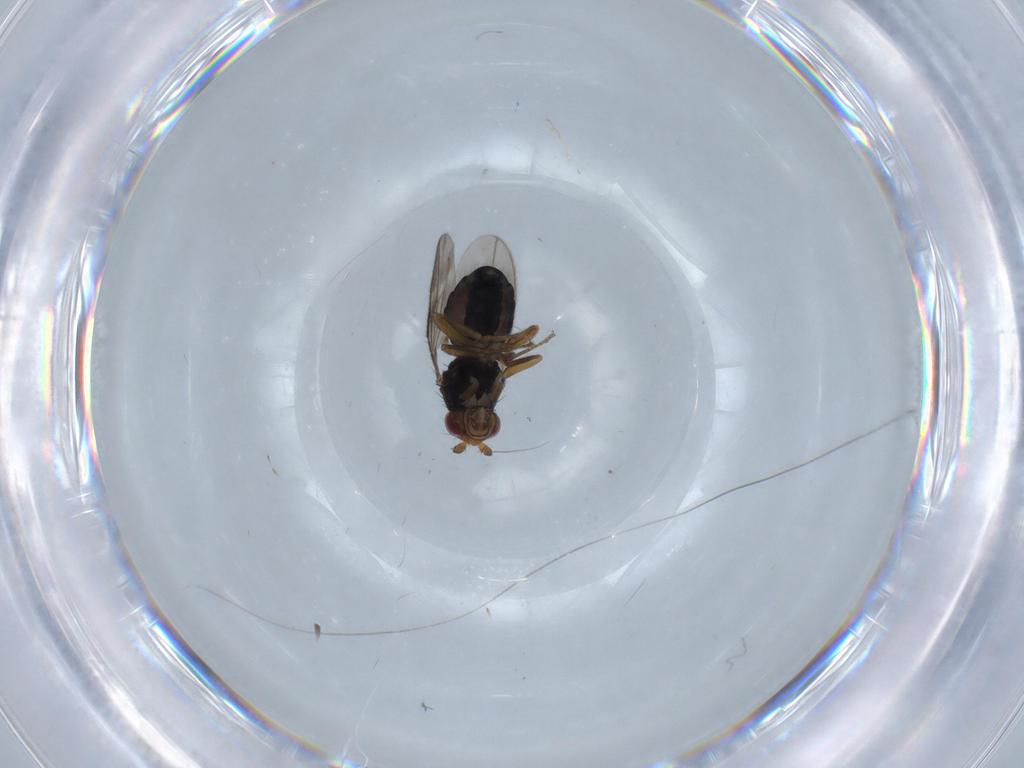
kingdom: Animalia
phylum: Arthropoda
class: Insecta
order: Diptera
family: Sphaeroceridae
